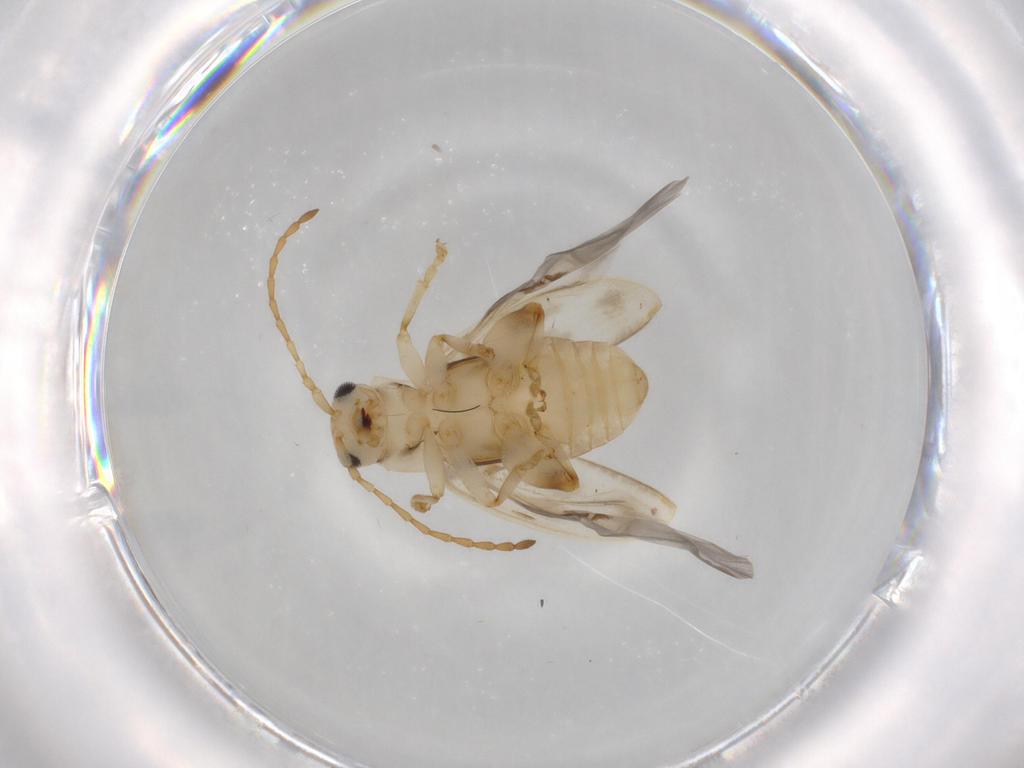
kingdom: Animalia
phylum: Arthropoda
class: Insecta
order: Coleoptera
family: Chrysomelidae
